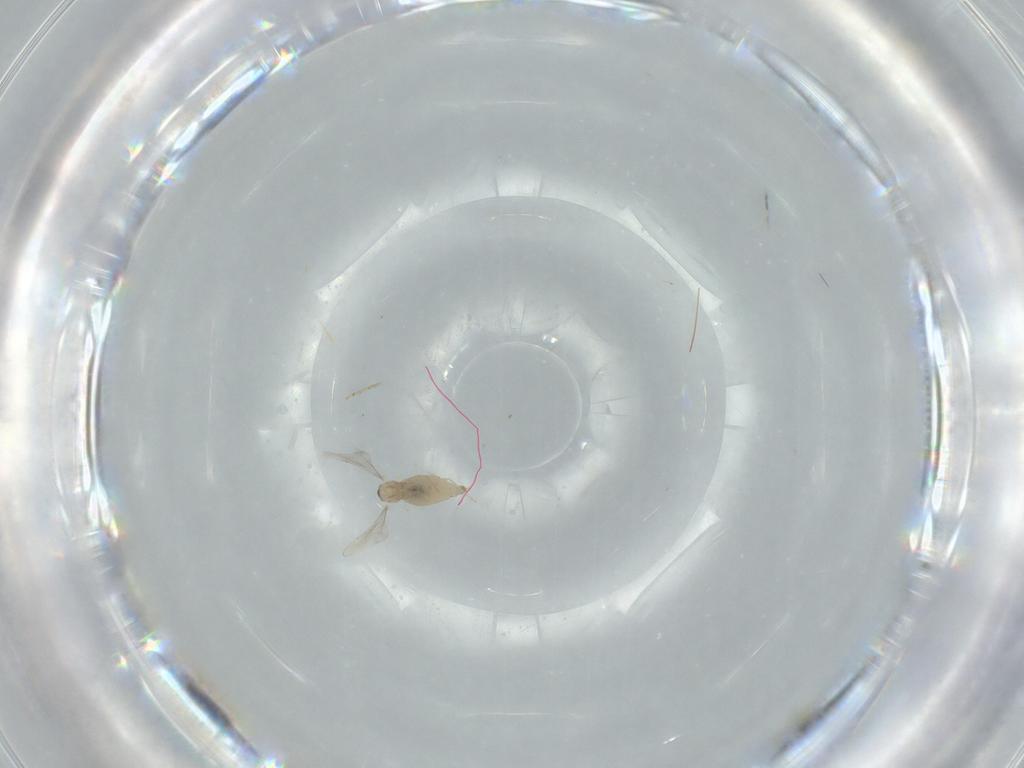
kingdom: Animalia
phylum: Arthropoda
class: Insecta
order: Diptera
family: Cecidomyiidae
